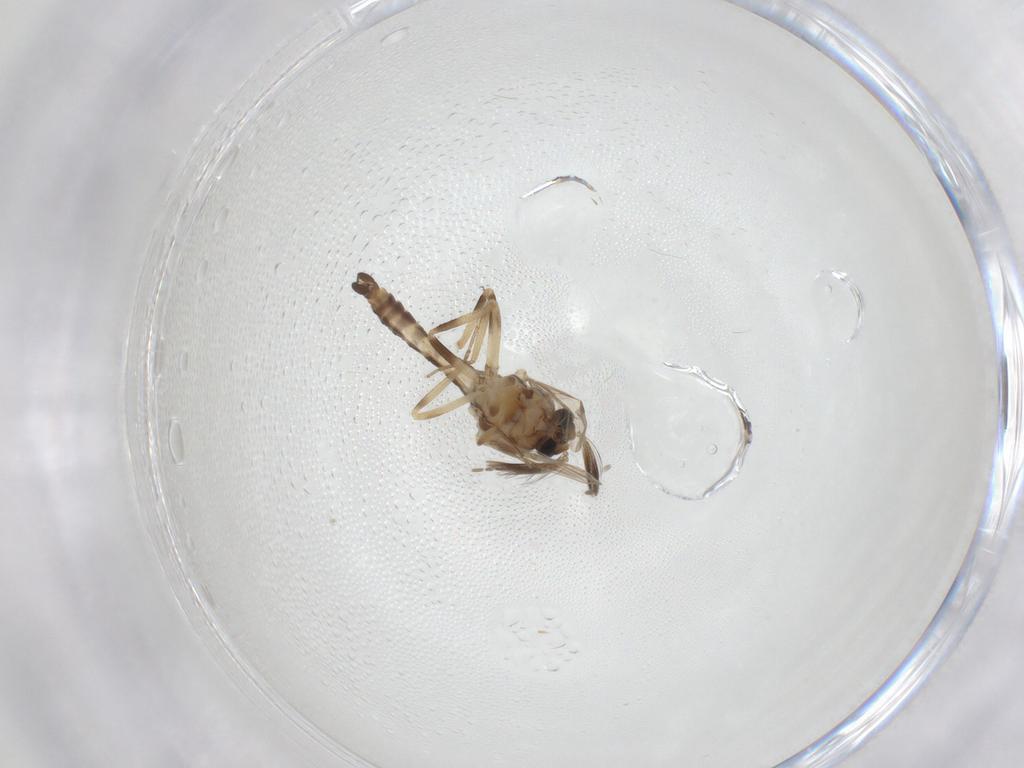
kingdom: Animalia
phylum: Arthropoda
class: Insecta
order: Diptera
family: Ceratopogonidae
